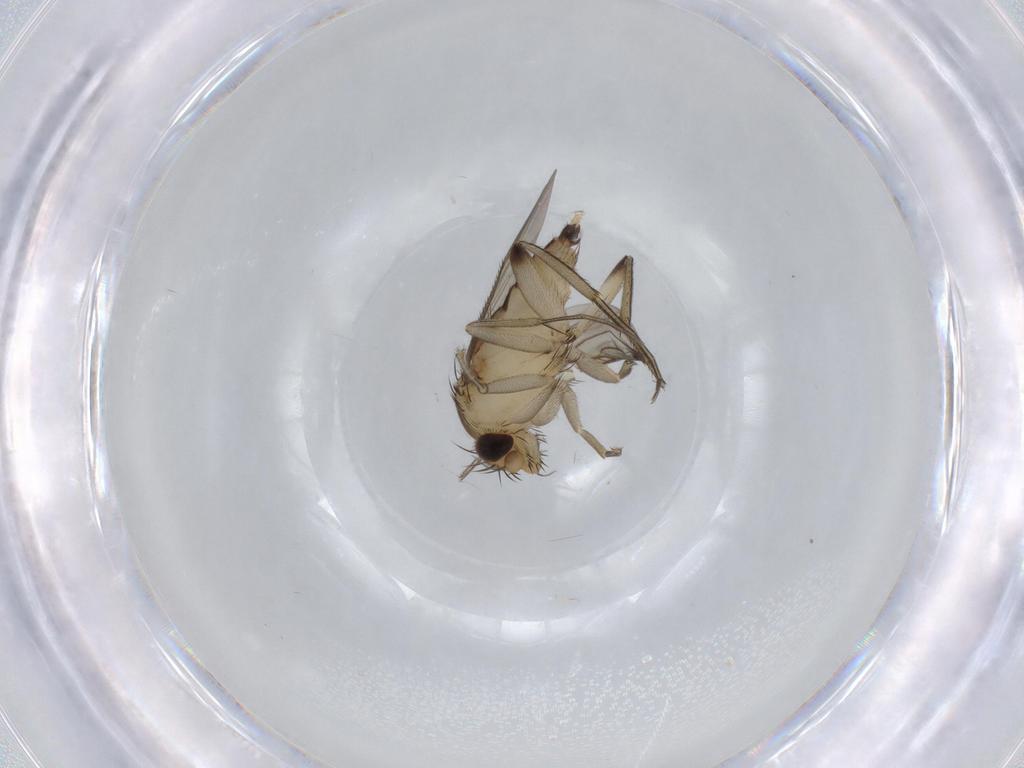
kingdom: Animalia
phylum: Arthropoda
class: Insecta
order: Diptera
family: Phoridae
